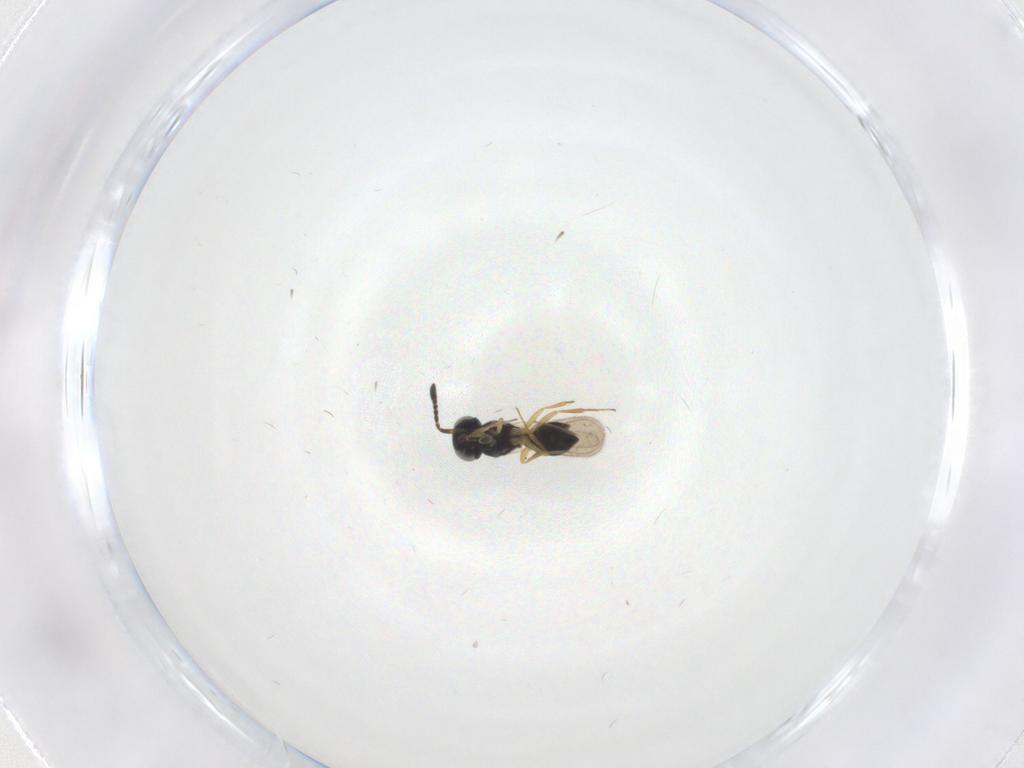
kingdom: Animalia
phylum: Arthropoda
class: Insecta
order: Hymenoptera
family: Scelionidae
